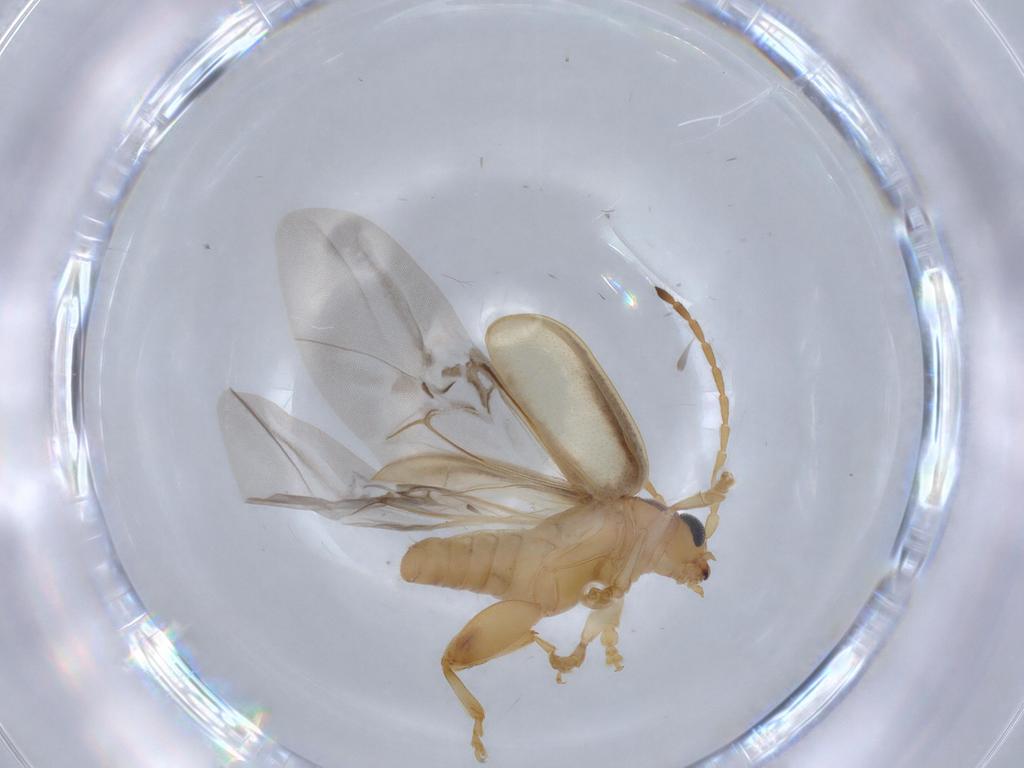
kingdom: Animalia
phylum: Arthropoda
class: Insecta
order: Coleoptera
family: Chrysomelidae
